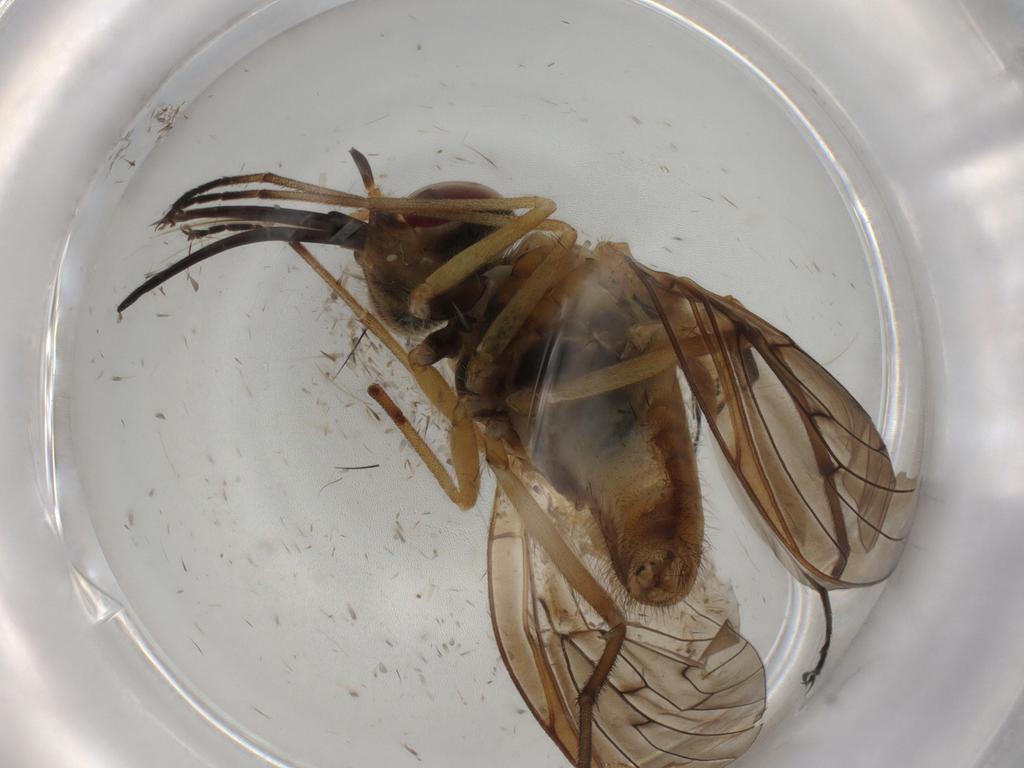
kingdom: Animalia
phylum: Arthropoda
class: Insecta
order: Diptera
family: Bombyliidae
